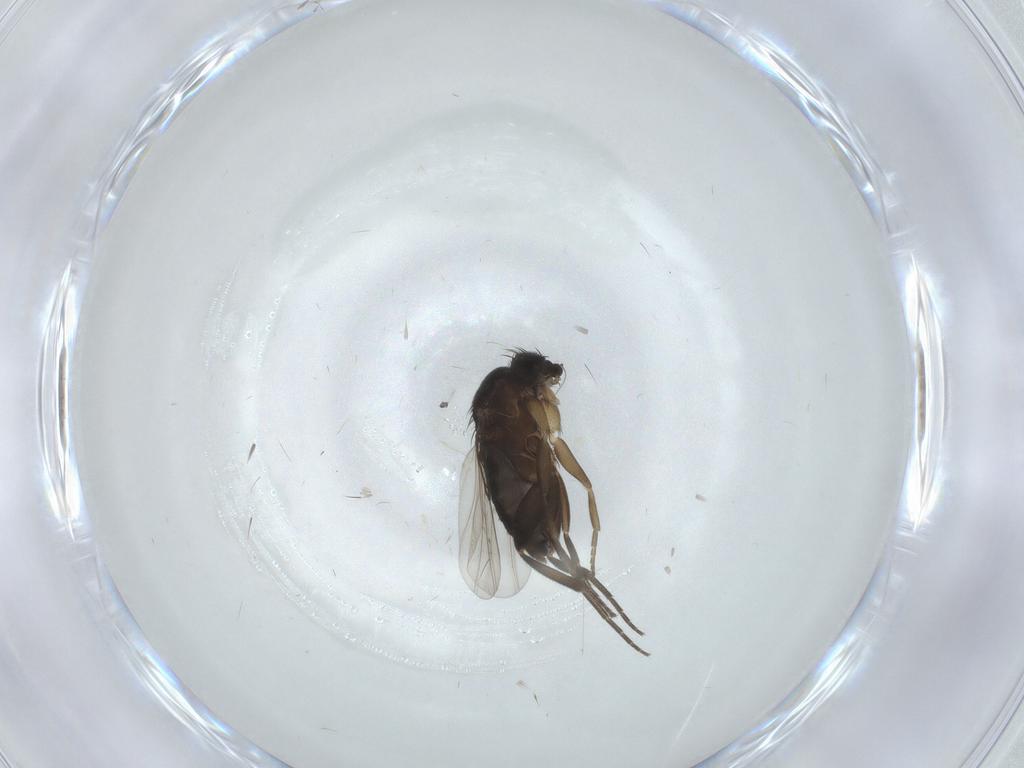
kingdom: Animalia
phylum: Arthropoda
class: Insecta
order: Diptera
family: Phoridae
